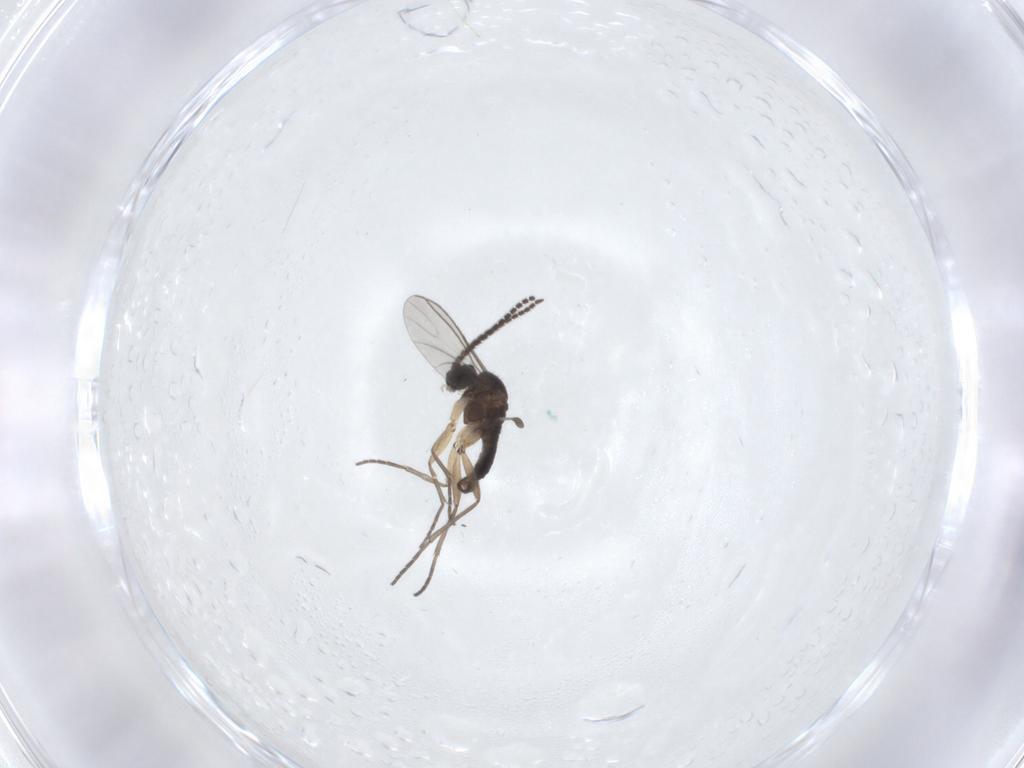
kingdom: Animalia
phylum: Arthropoda
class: Insecta
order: Diptera
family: Sciaridae
